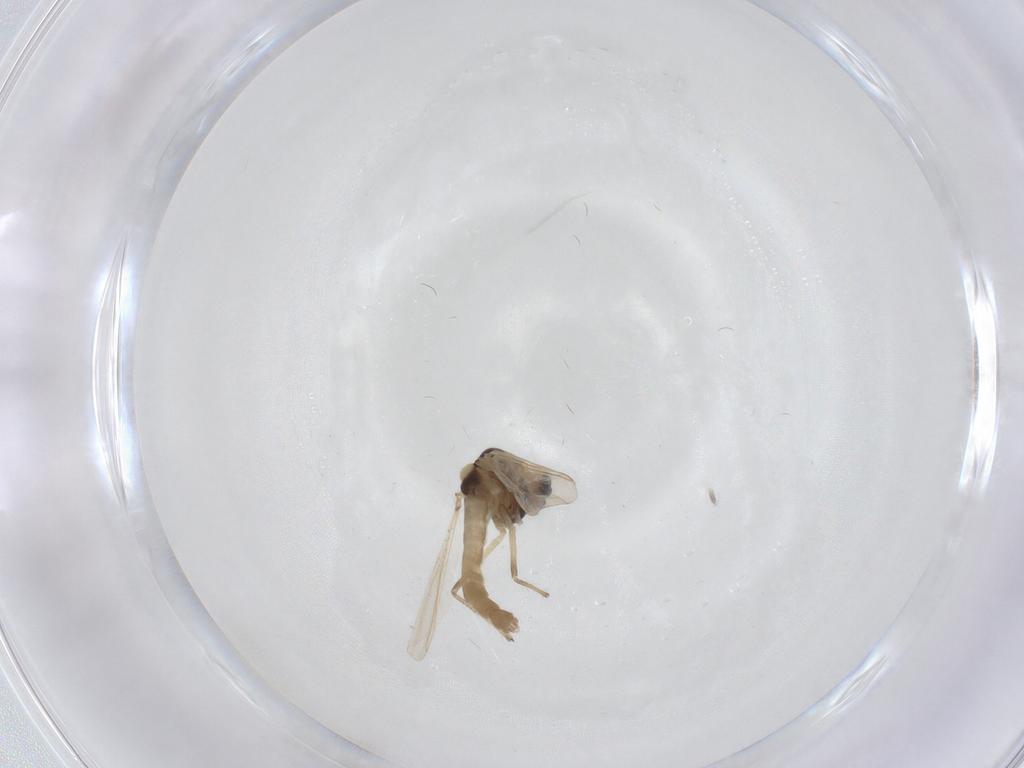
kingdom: Animalia
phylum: Arthropoda
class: Insecta
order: Diptera
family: Chironomidae
